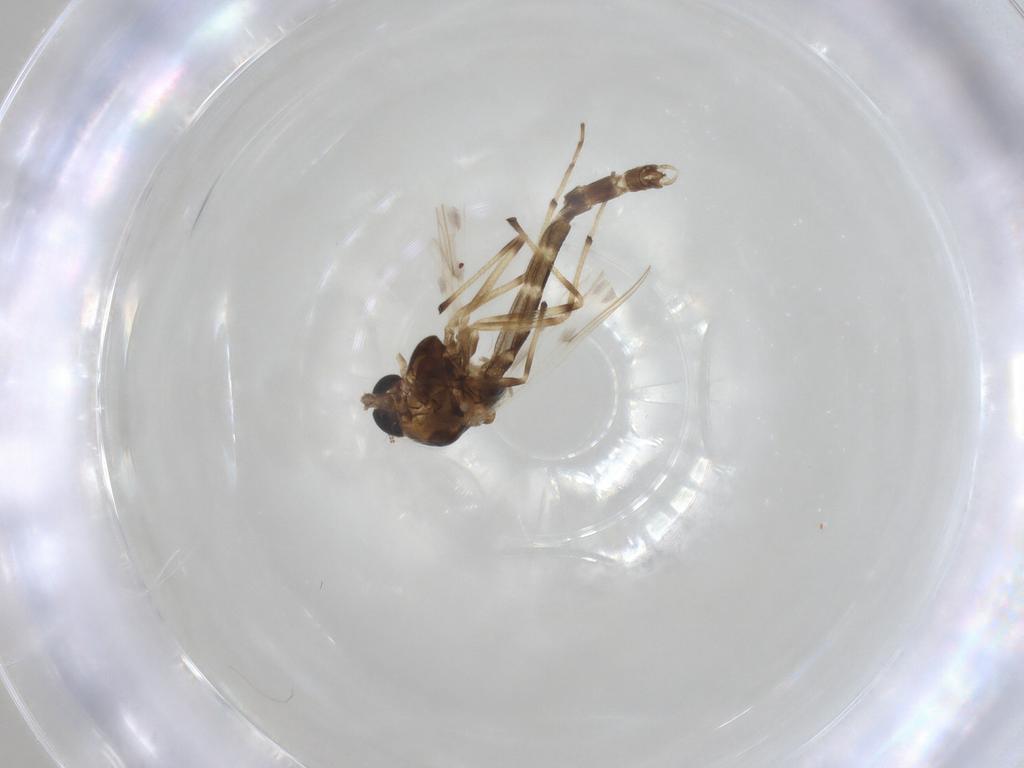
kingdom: Animalia
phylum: Arthropoda
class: Insecta
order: Diptera
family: Chironomidae
